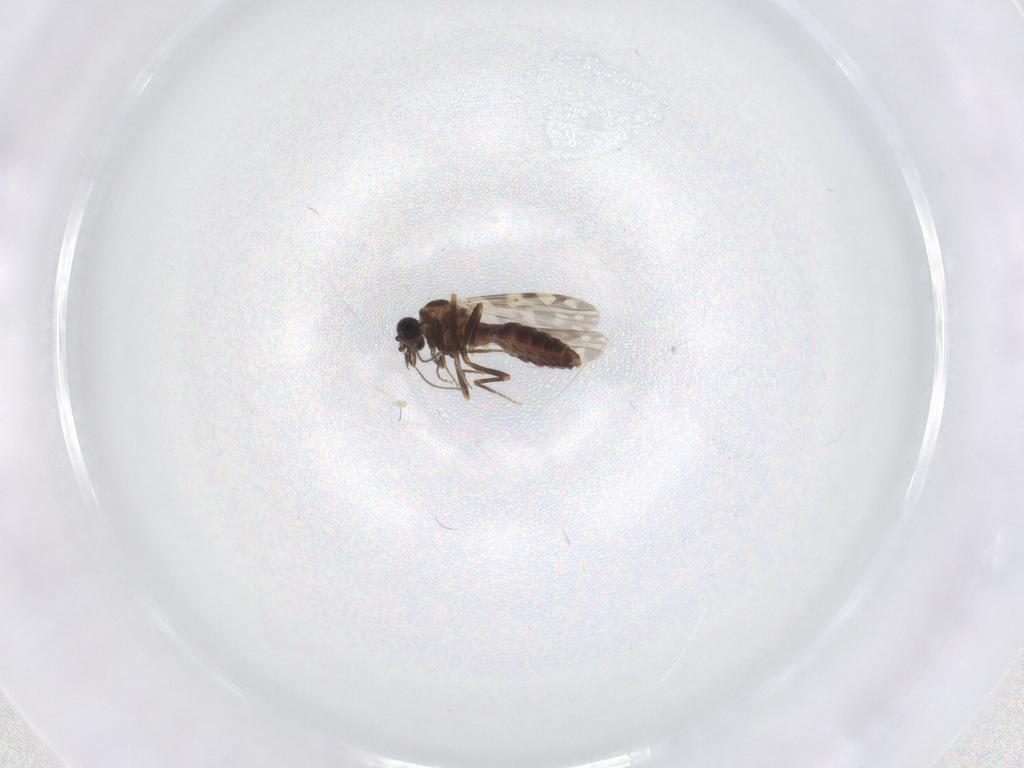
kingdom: Animalia
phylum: Arthropoda
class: Insecta
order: Diptera
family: Ceratopogonidae
